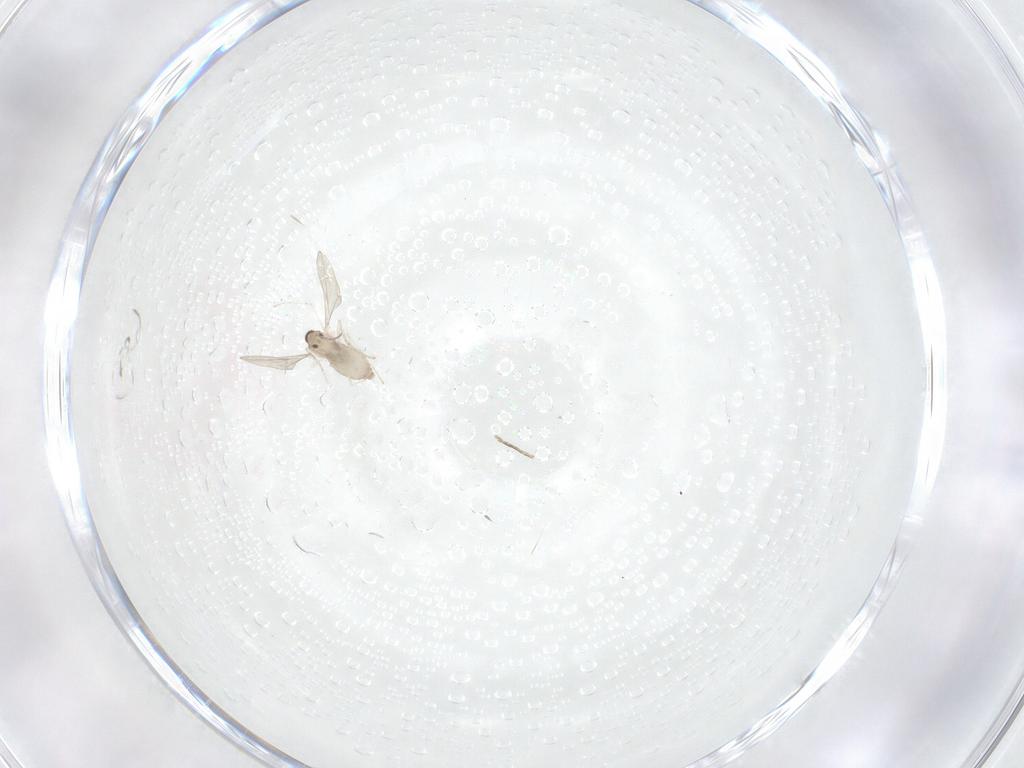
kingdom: Animalia
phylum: Arthropoda
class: Insecta
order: Diptera
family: Cecidomyiidae
